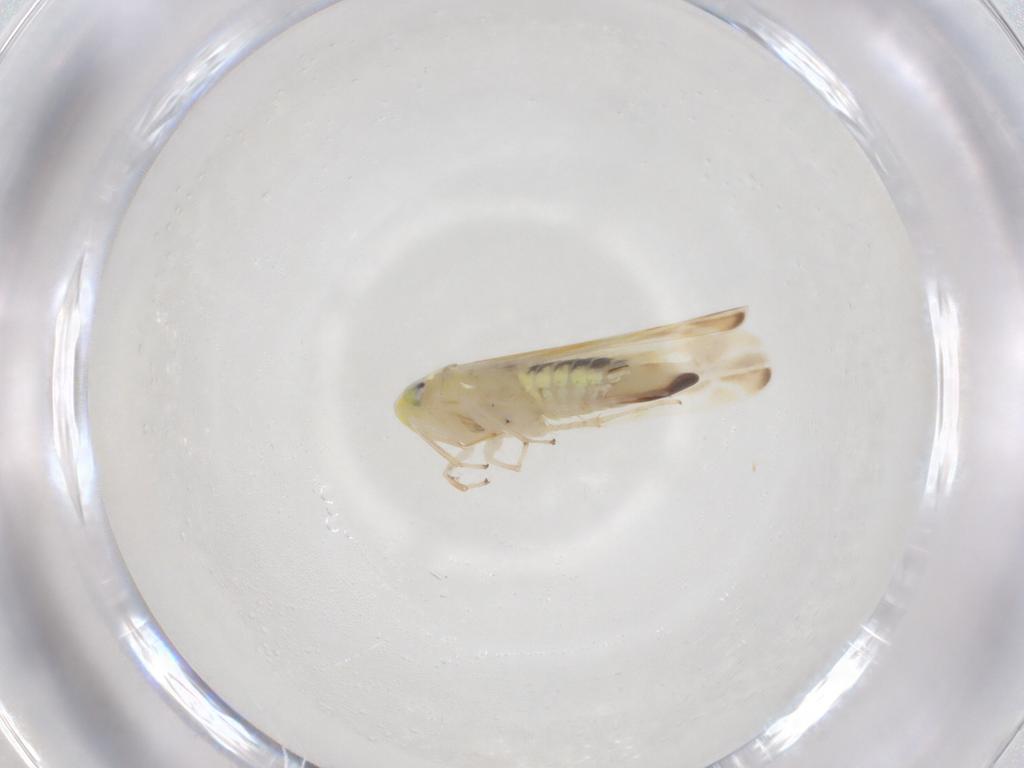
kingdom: Animalia
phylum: Arthropoda
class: Insecta
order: Hemiptera
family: Cicadellidae
